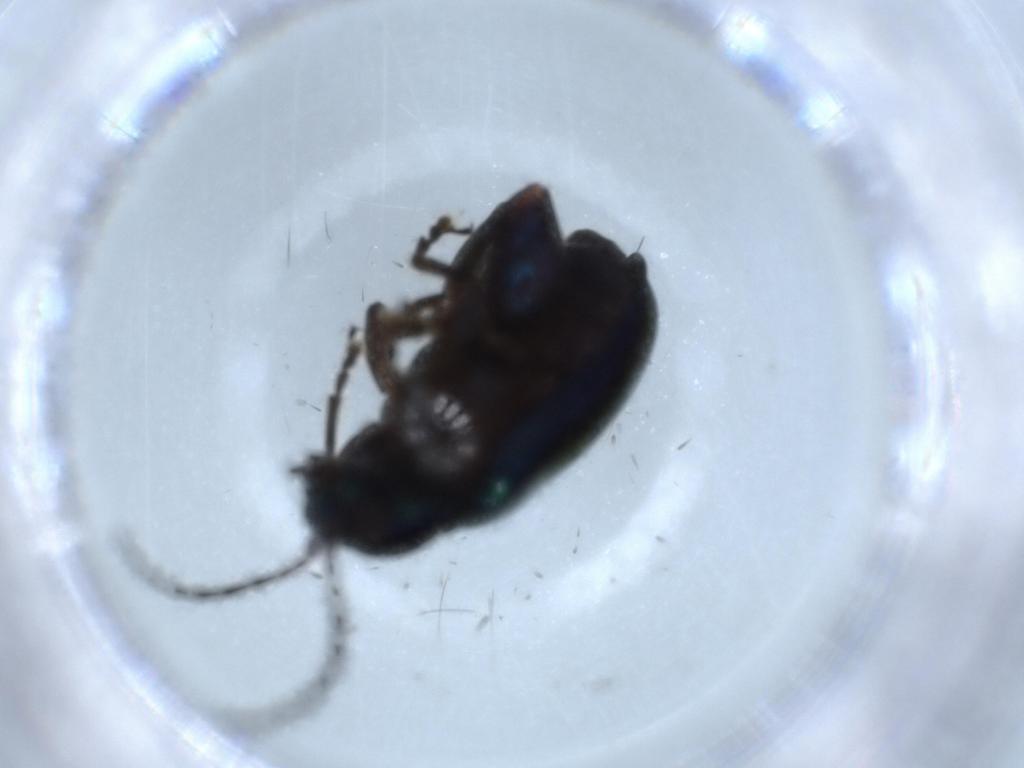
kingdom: Animalia
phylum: Arthropoda
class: Insecta
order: Coleoptera
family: Chrysomelidae
